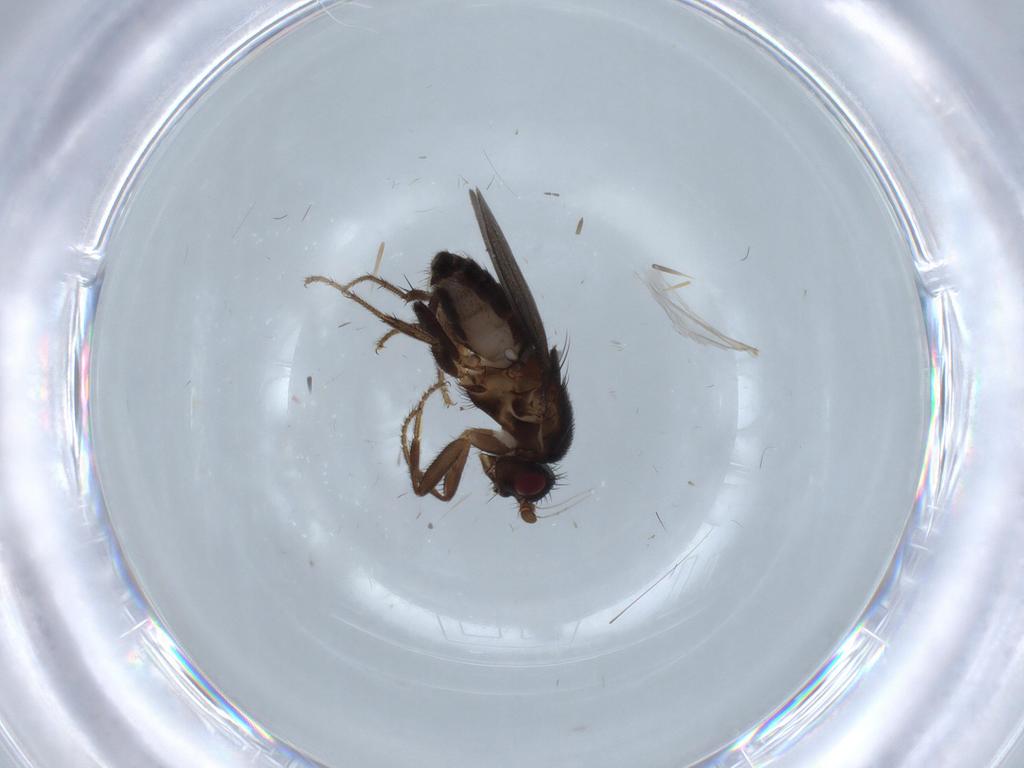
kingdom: Animalia
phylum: Arthropoda
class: Insecta
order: Diptera
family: Sphaeroceridae
